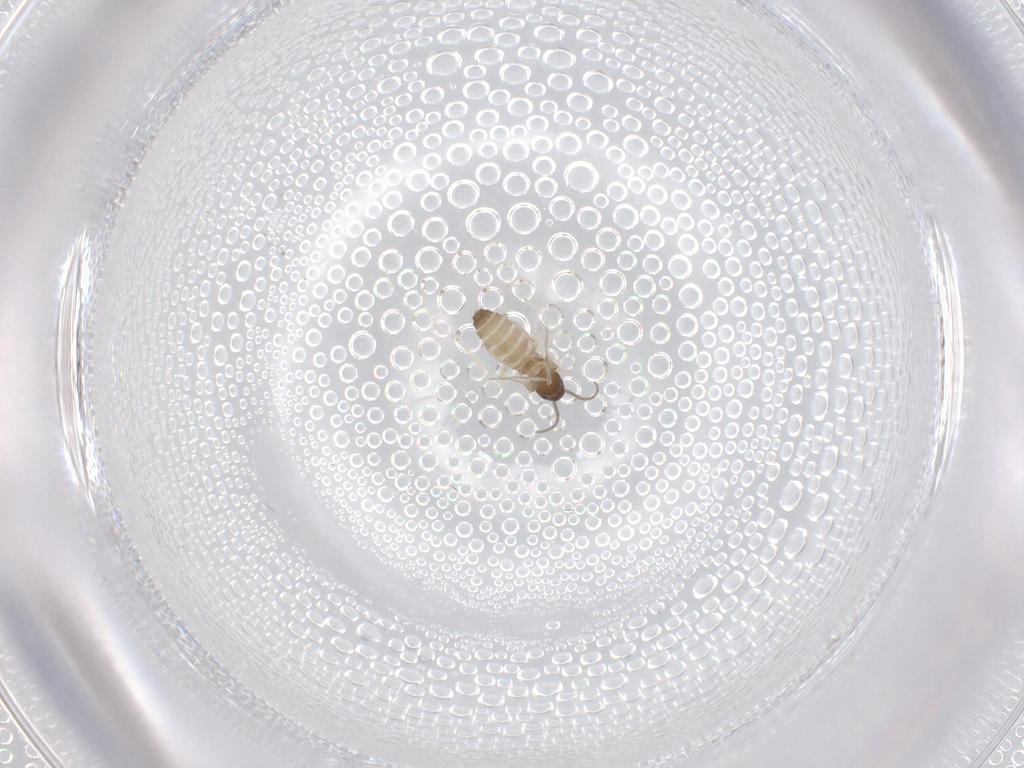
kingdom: Animalia
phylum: Arthropoda
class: Insecta
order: Diptera
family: Cecidomyiidae
